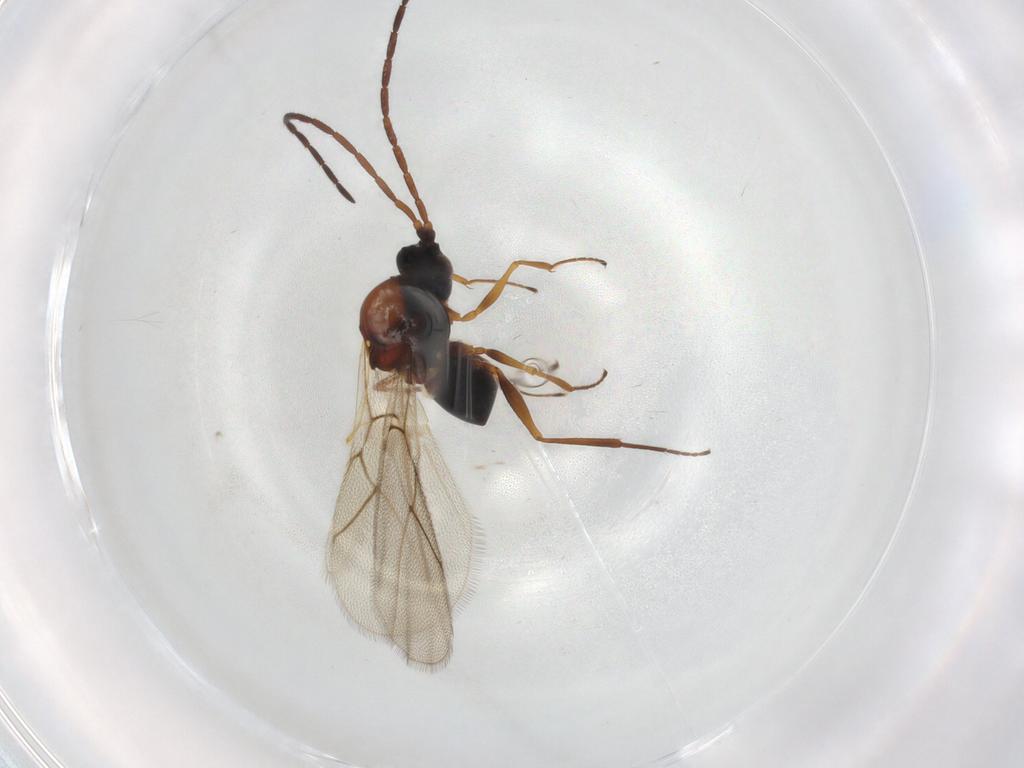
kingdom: Animalia
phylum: Arthropoda
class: Insecta
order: Hymenoptera
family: Figitidae
